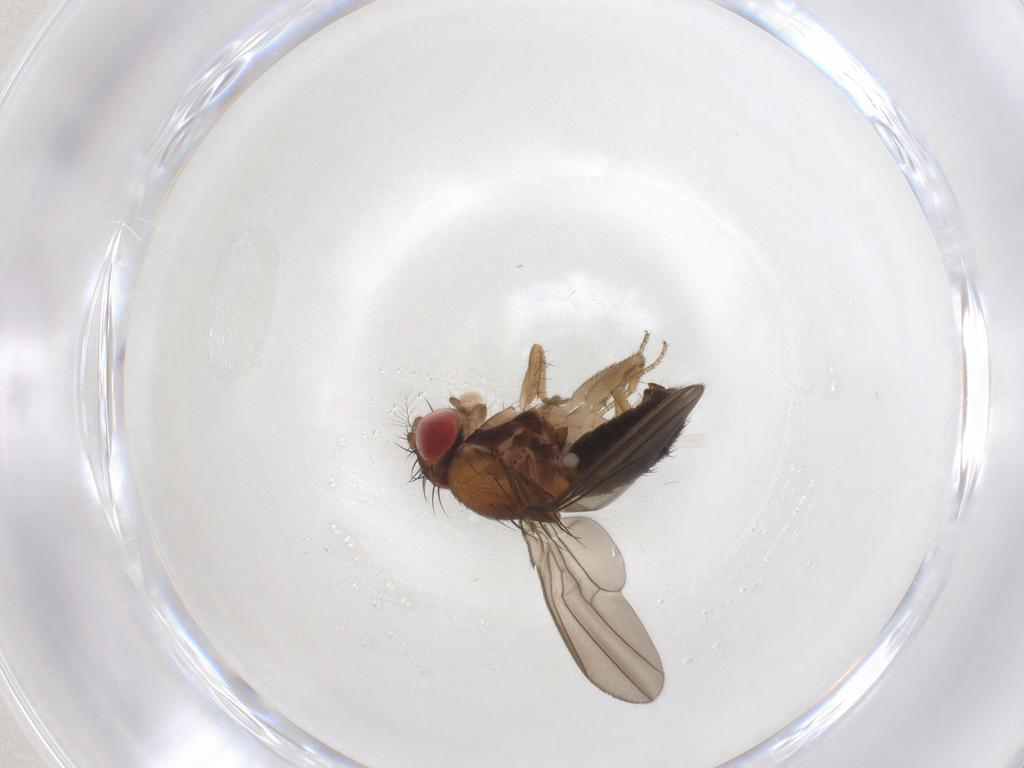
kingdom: Animalia
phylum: Arthropoda
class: Insecta
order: Diptera
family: Drosophilidae
